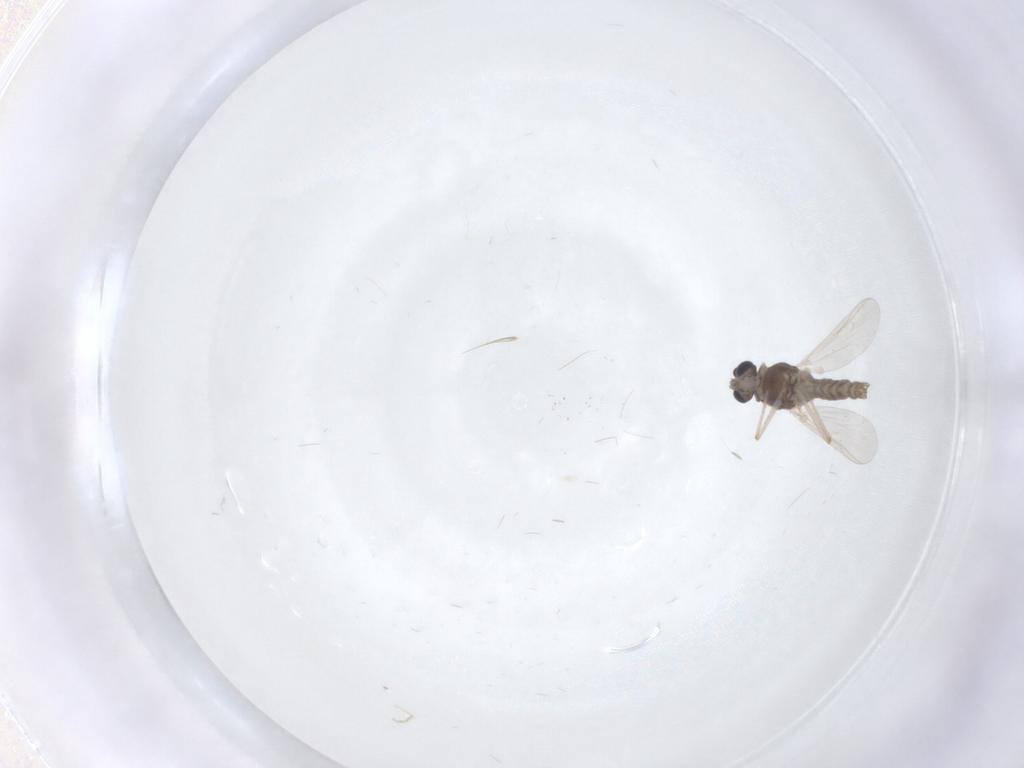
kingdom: Animalia
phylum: Arthropoda
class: Insecta
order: Diptera
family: Chironomidae
